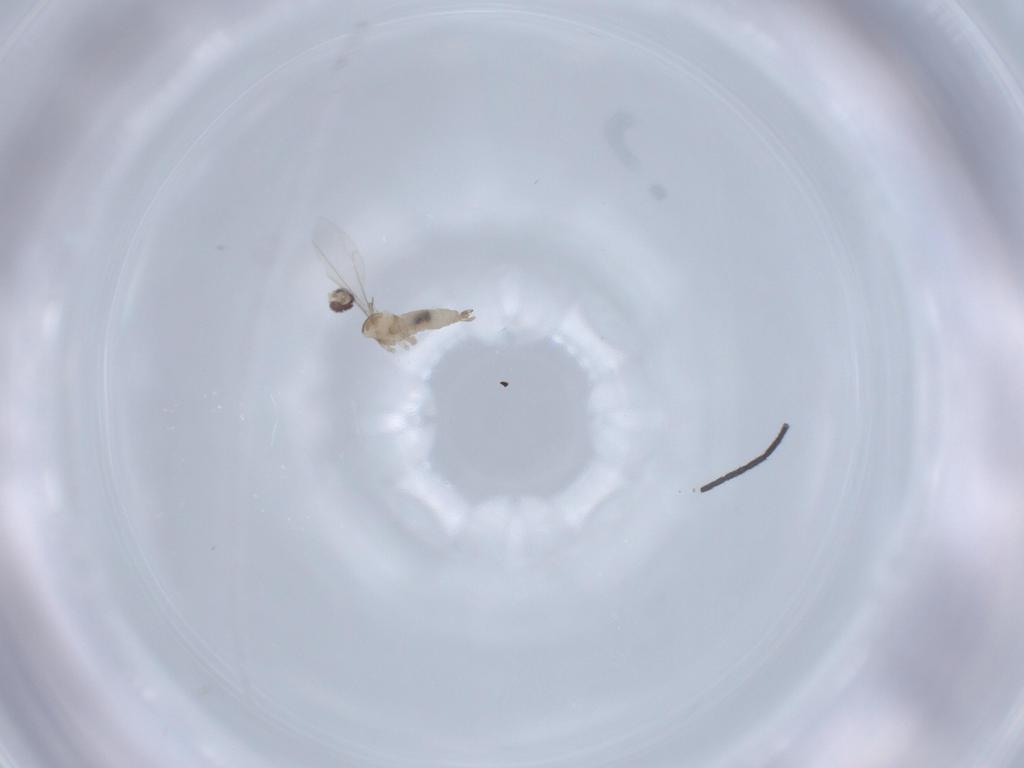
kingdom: Animalia
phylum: Arthropoda
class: Insecta
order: Diptera
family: Cecidomyiidae
